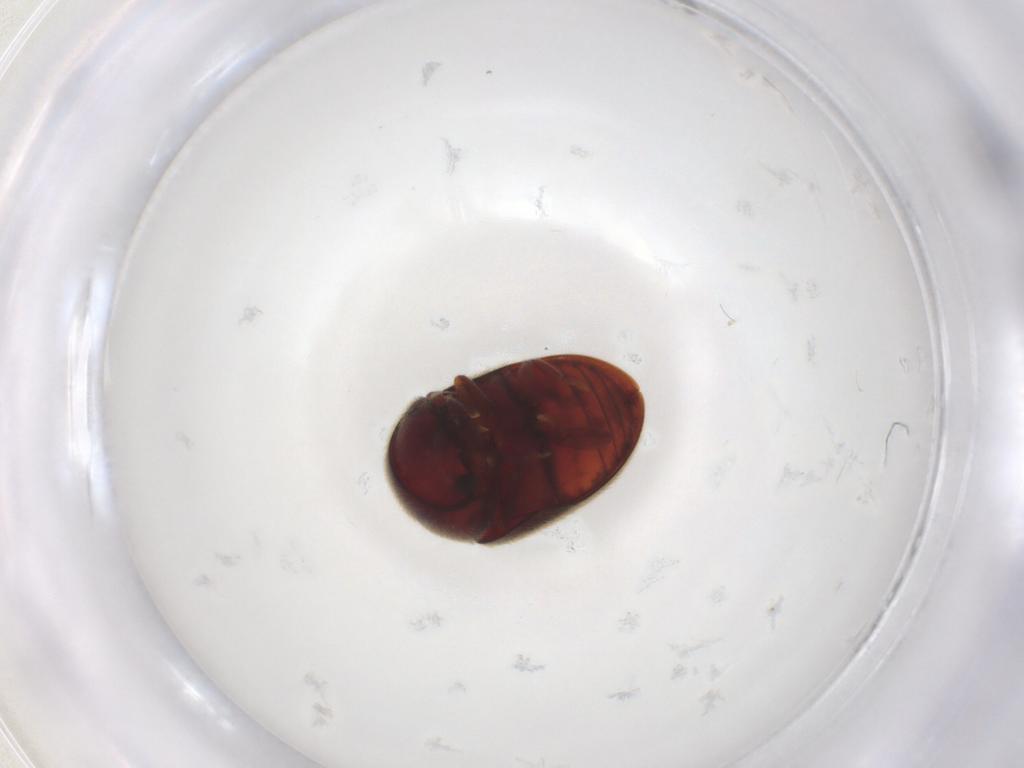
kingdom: Animalia
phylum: Arthropoda
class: Insecta
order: Coleoptera
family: Ptinidae
